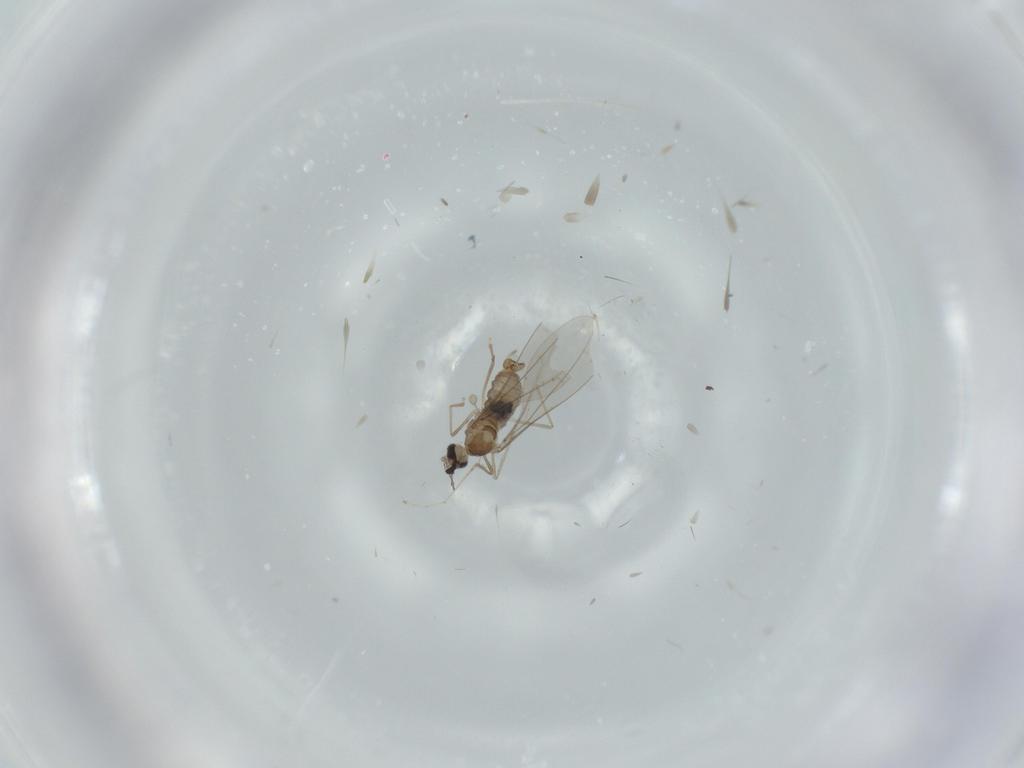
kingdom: Animalia
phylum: Arthropoda
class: Insecta
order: Diptera
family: Cecidomyiidae
